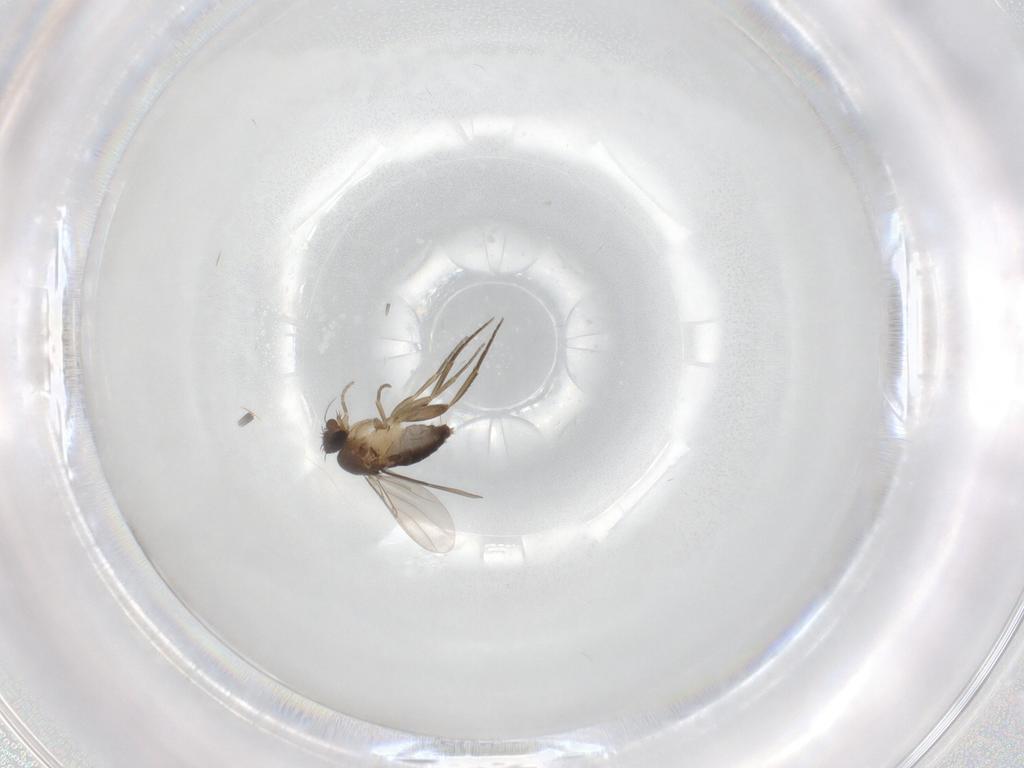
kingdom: Animalia
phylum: Arthropoda
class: Insecta
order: Diptera
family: Phoridae
